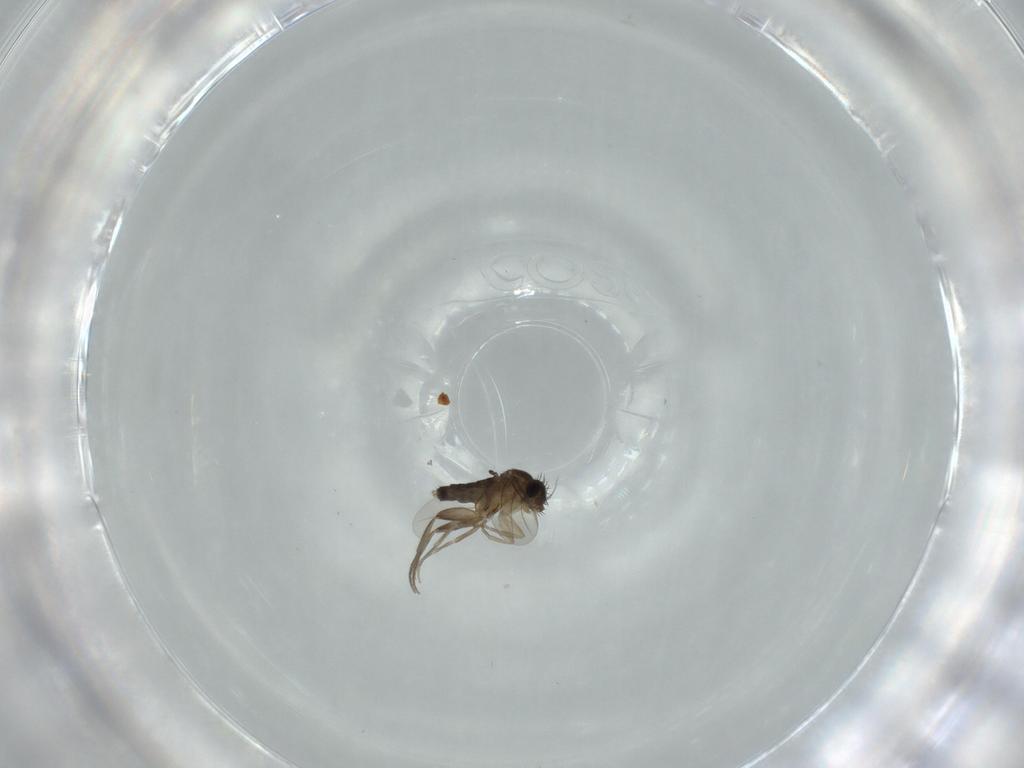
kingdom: Animalia
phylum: Arthropoda
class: Insecta
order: Diptera
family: Phoridae
